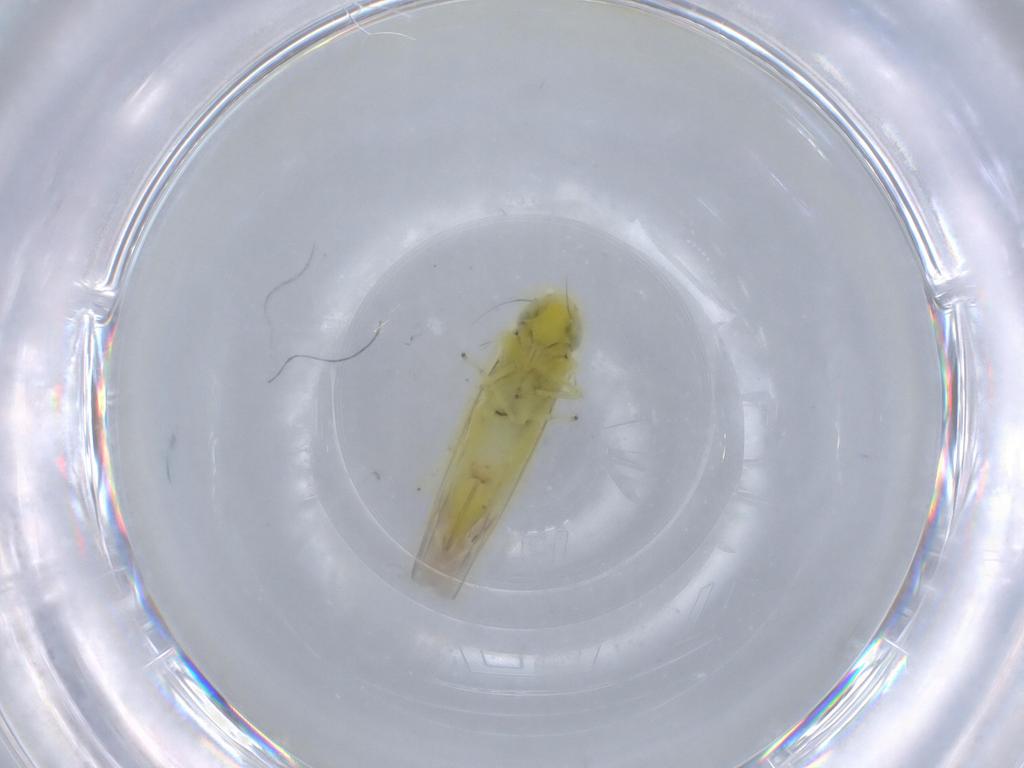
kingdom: Animalia
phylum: Arthropoda
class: Insecta
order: Hemiptera
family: Cicadellidae
